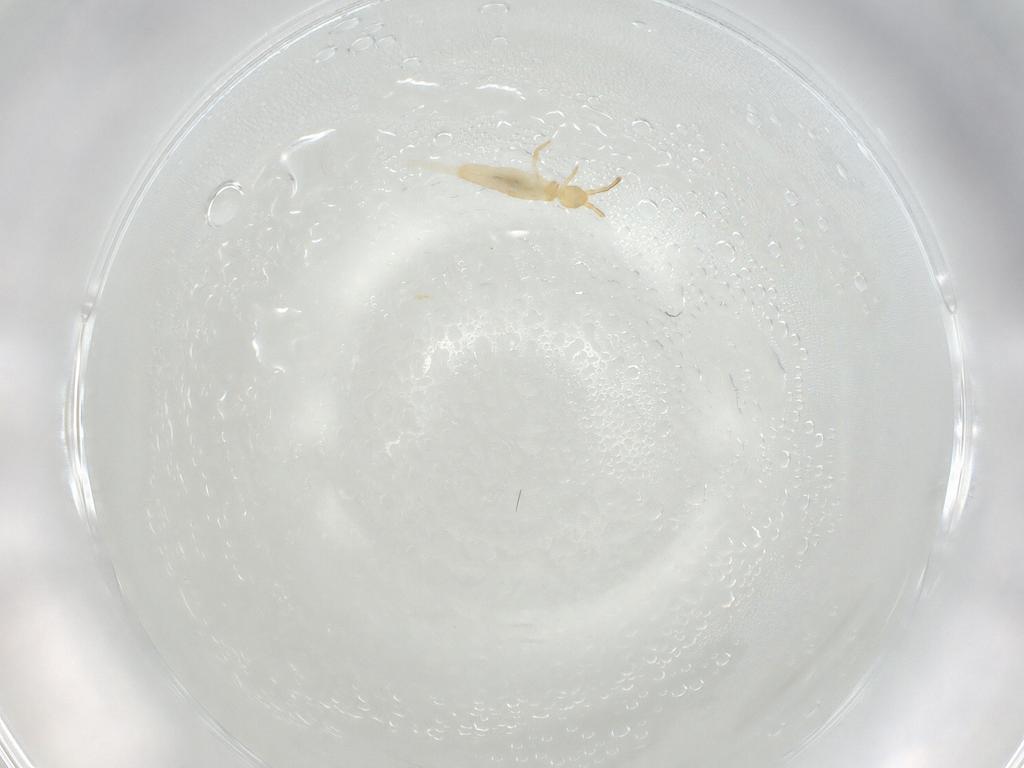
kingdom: Animalia
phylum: Arthropoda
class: Collembola
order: Entomobryomorpha
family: Entomobryidae
